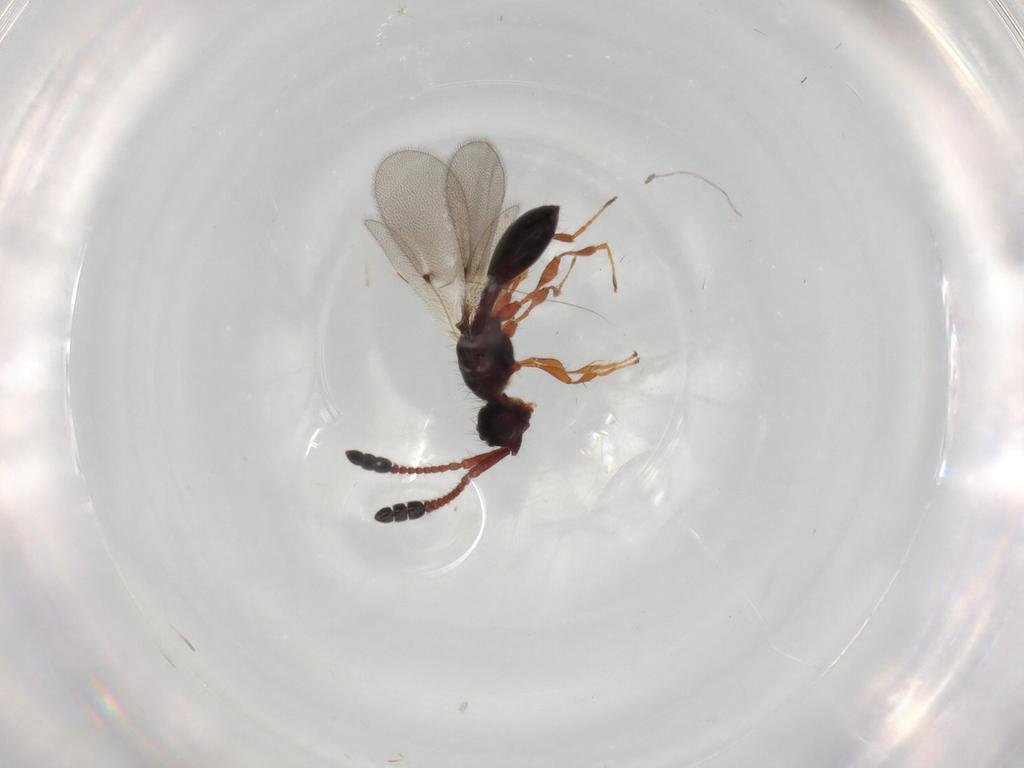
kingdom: Animalia
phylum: Arthropoda
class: Insecta
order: Hymenoptera
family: Diapriidae
